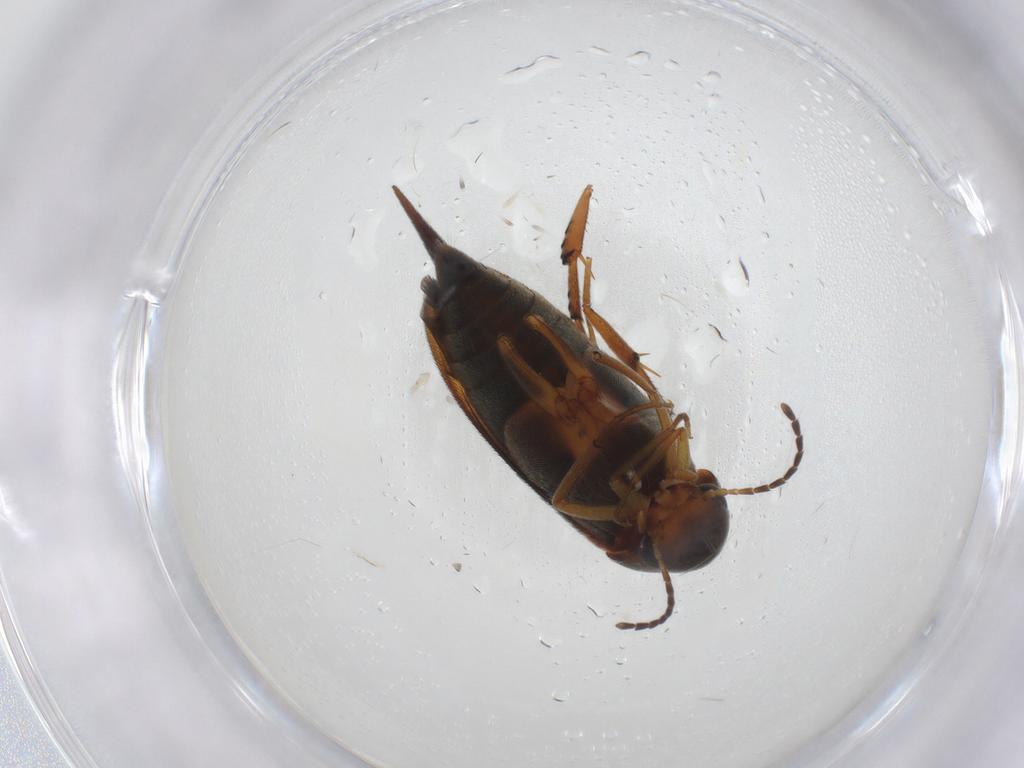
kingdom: Animalia
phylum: Arthropoda
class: Insecta
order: Coleoptera
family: Mordellidae
